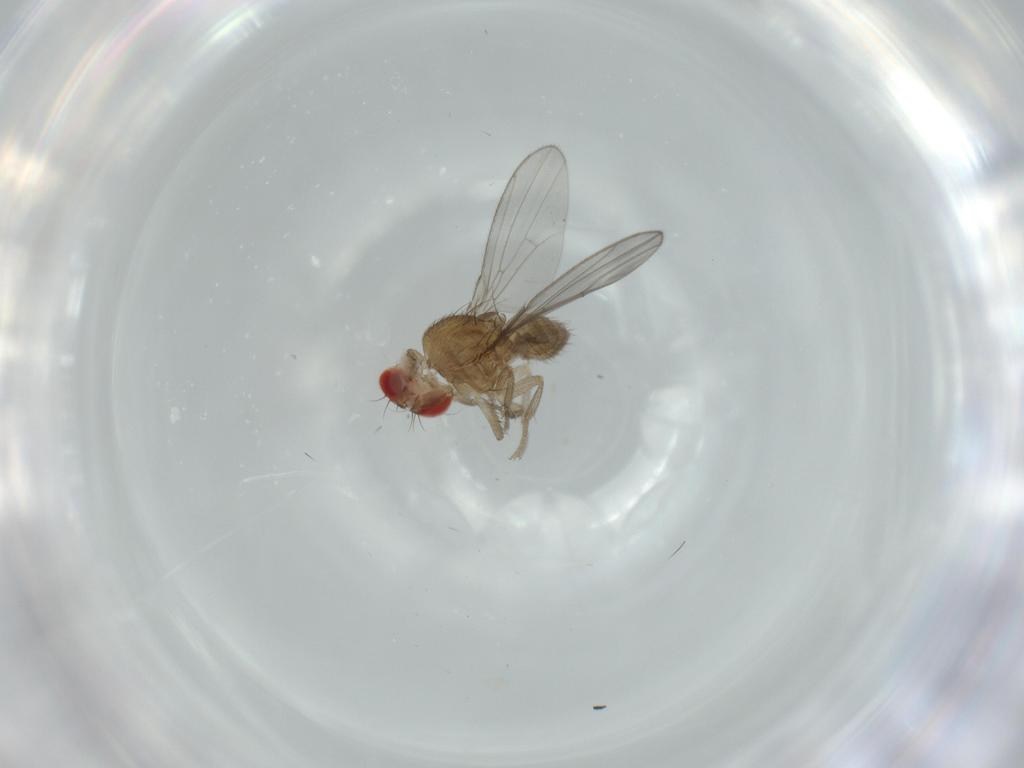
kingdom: Animalia
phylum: Arthropoda
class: Insecta
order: Diptera
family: Drosophilidae
